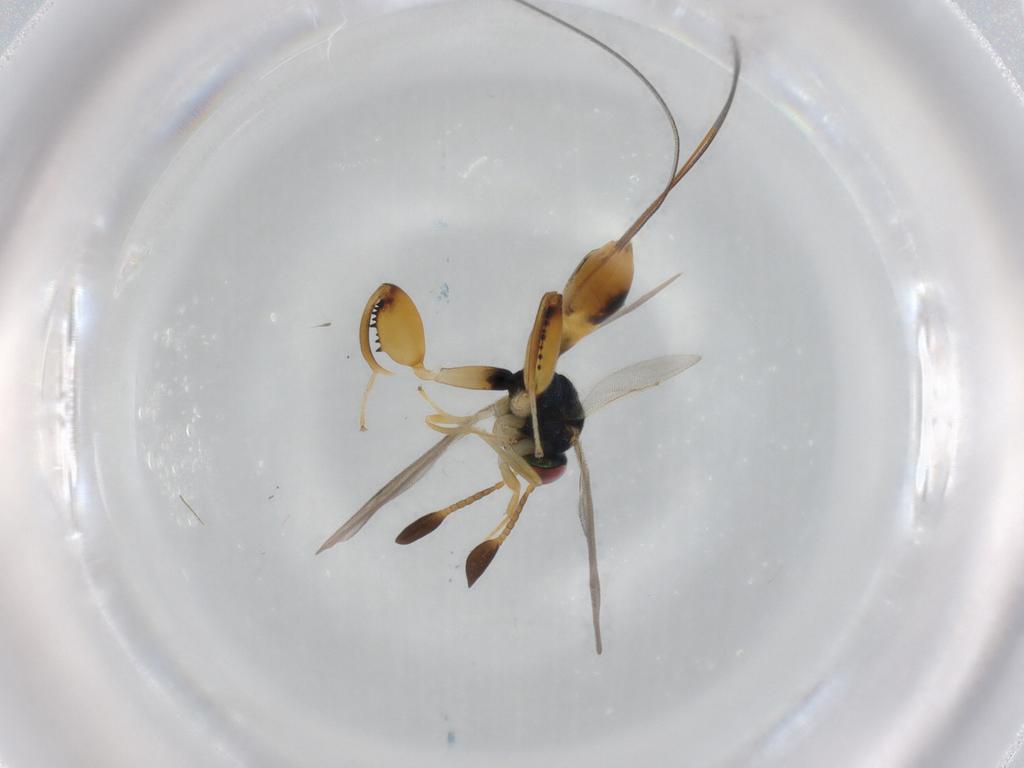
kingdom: Animalia
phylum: Arthropoda
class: Insecta
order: Hymenoptera
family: Torymidae
